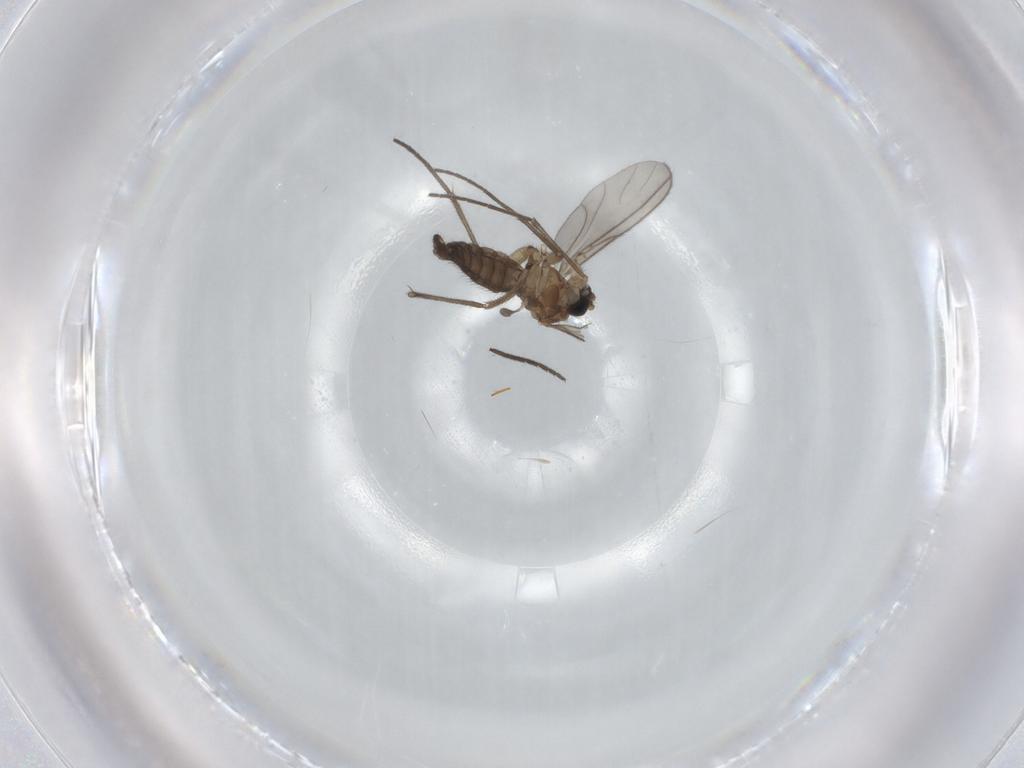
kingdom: Animalia
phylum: Arthropoda
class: Insecta
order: Diptera
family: Sciaridae
